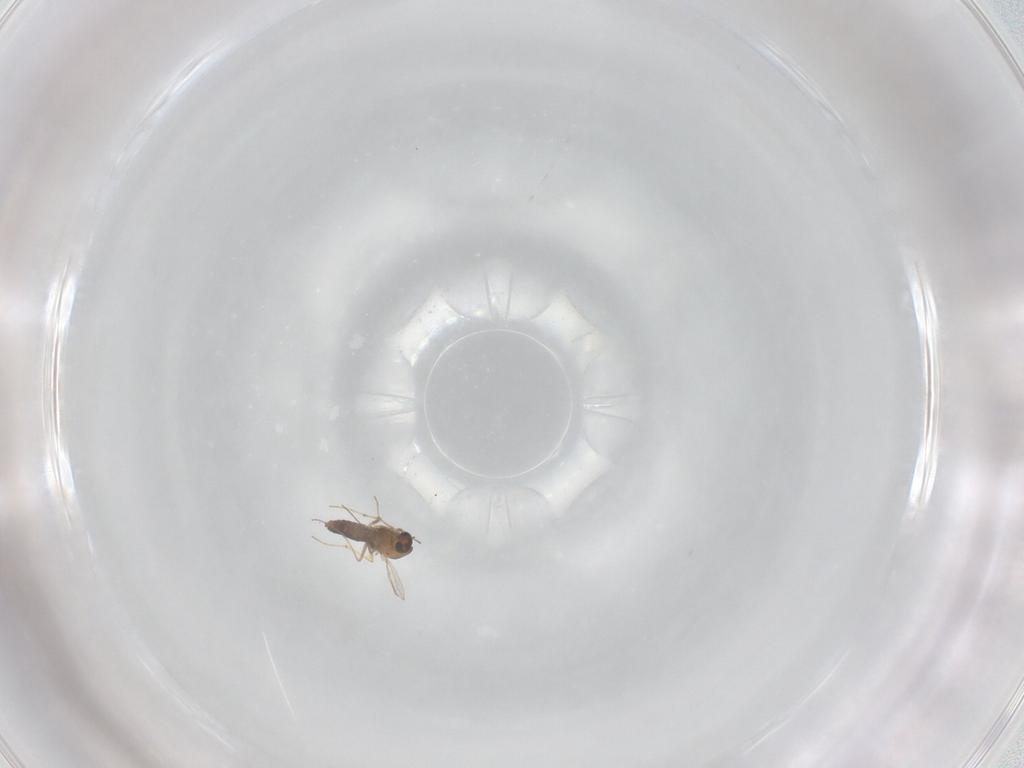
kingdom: Animalia
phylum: Arthropoda
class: Insecta
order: Diptera
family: Chironomidae
